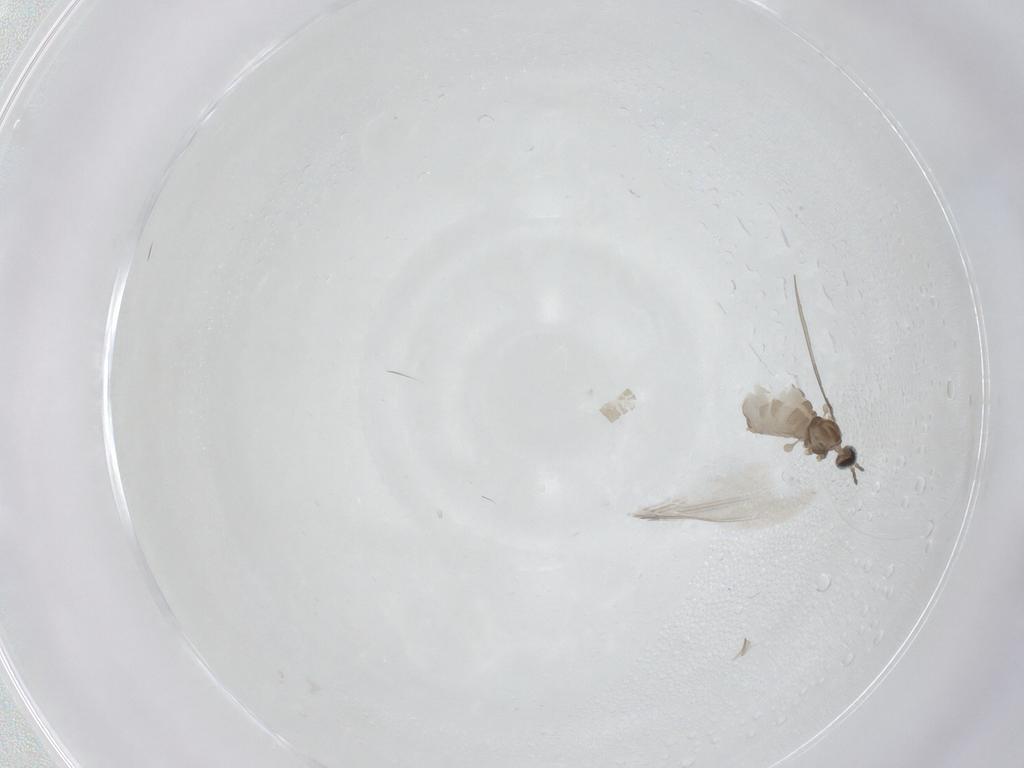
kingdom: Animalia
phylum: Arthropoda
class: Insecta
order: Diptera
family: Cecidomyiidae
